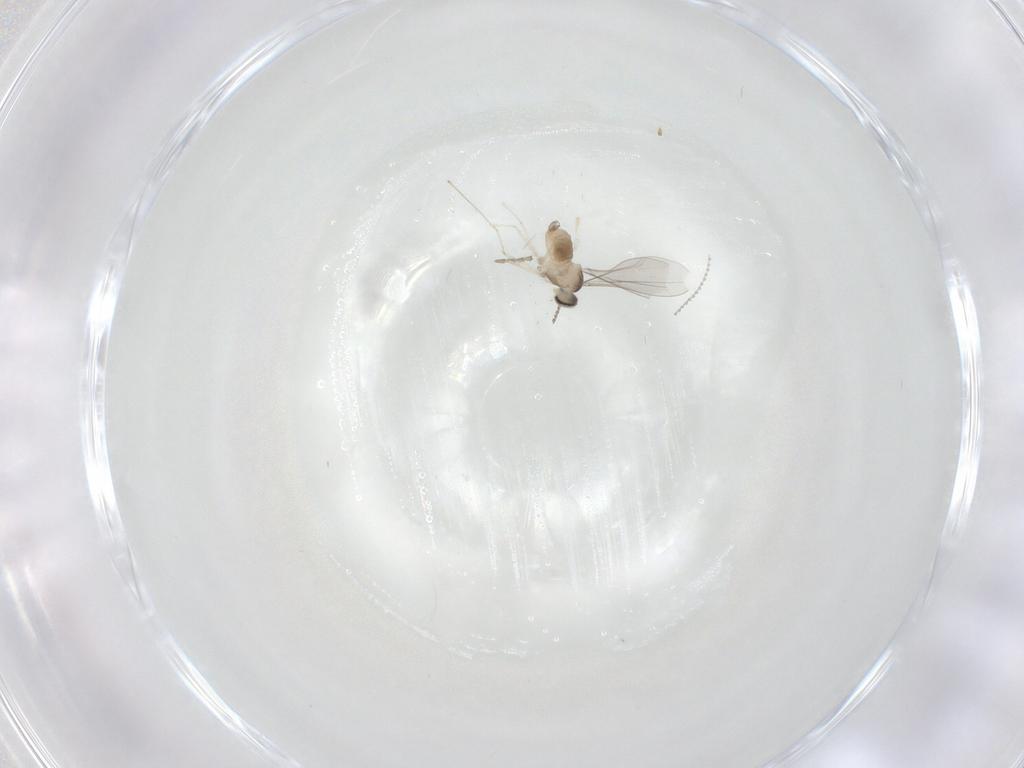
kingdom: Animalia
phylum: Arthropoda
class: Insecta
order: Diptera
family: Cecidomyiidae
